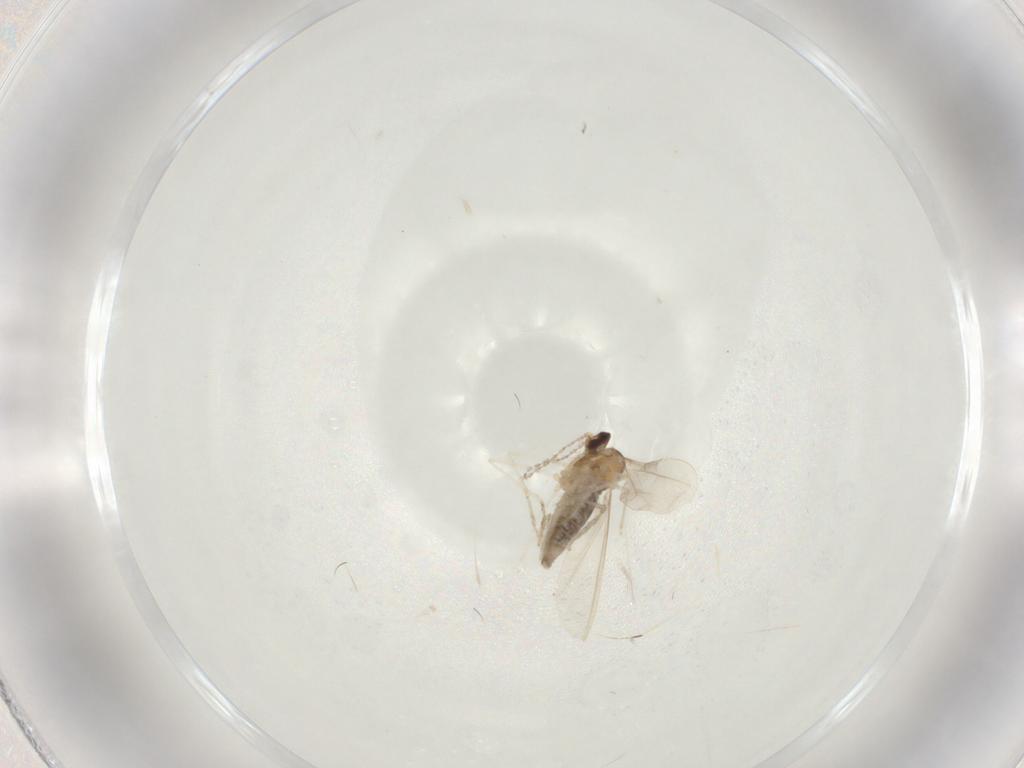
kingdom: Animalia
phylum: Arthropoda
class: Insecta
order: Diptera
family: Cecidomyiidae
